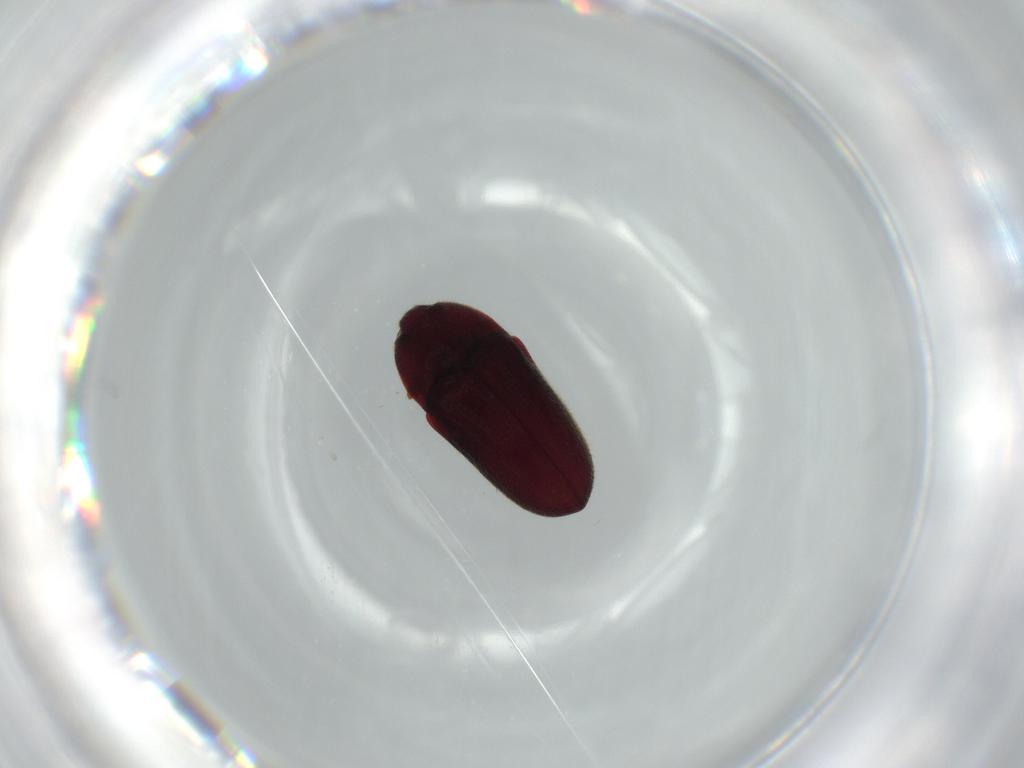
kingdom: Animalia
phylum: Arthropoda
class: Insecta
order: Coleoptera
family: Throscidae
